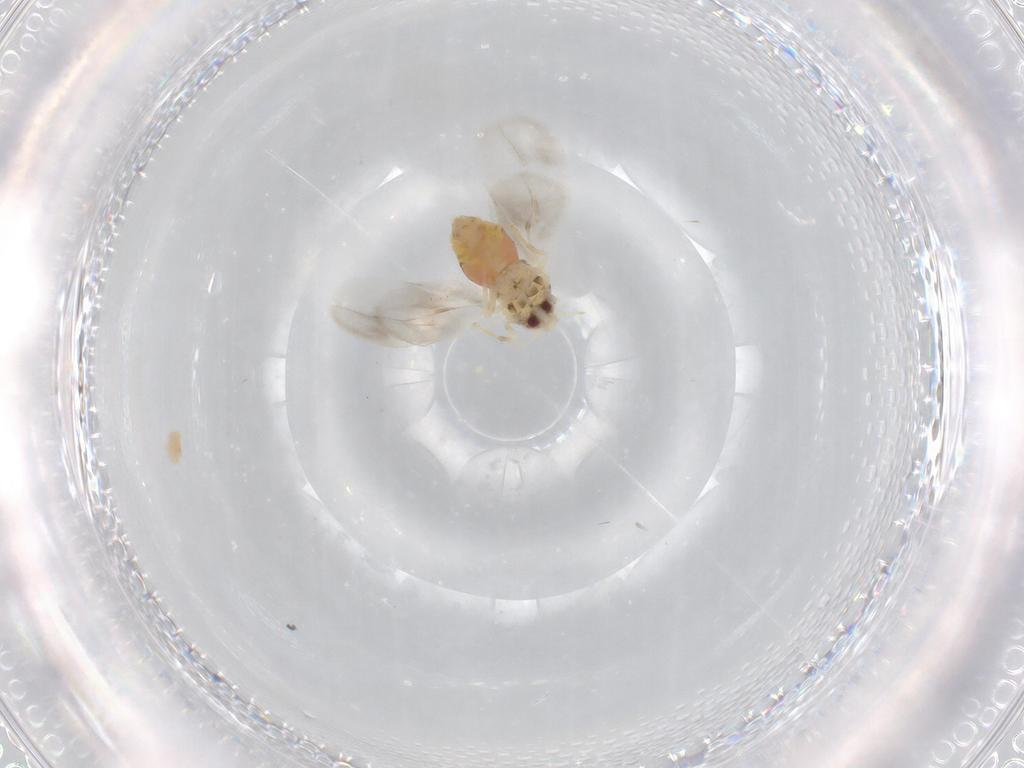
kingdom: Animalia
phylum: Arthropoda
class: Insecta
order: Hemiptera
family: Aleyrodidae
